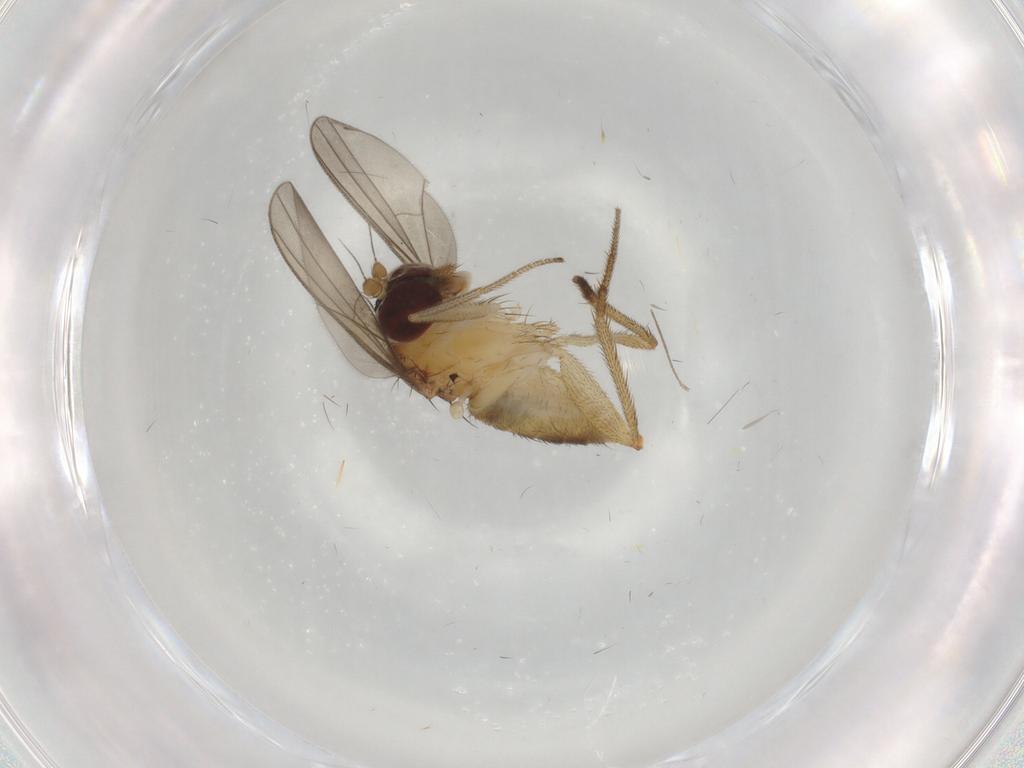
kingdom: Animalia
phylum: Arthropoda
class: Insecta
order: Diptera
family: Dolichopodidae
